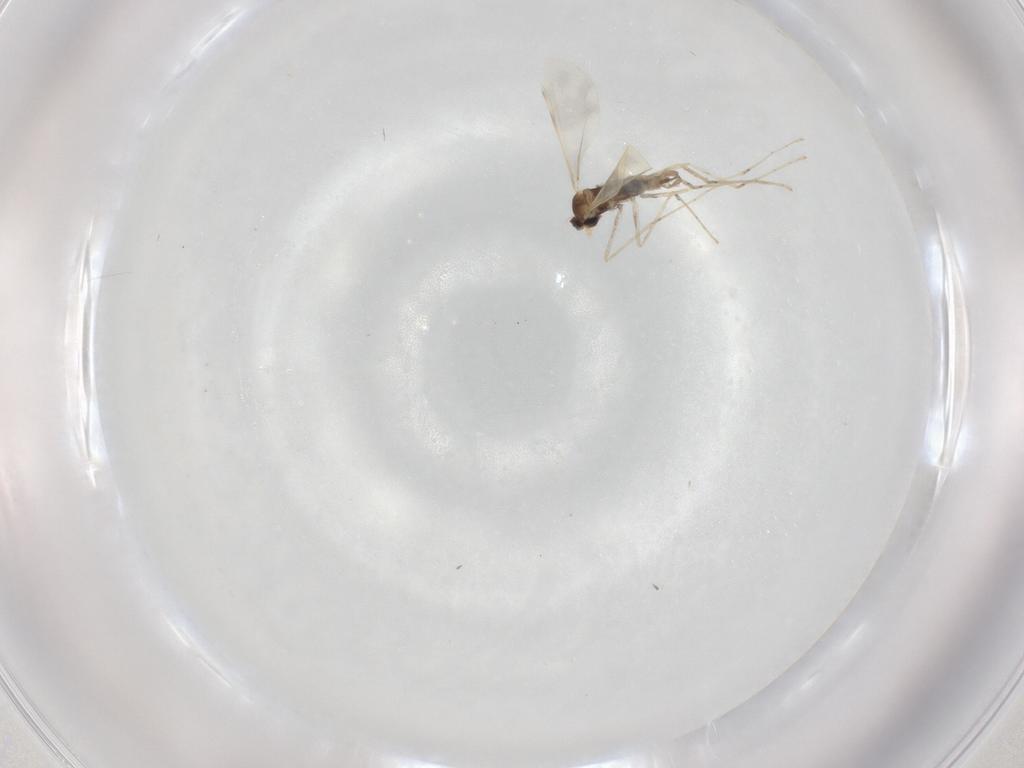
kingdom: Animalia
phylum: Arthropoda
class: Insecta
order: Diptera
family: Cecidomyiidae
